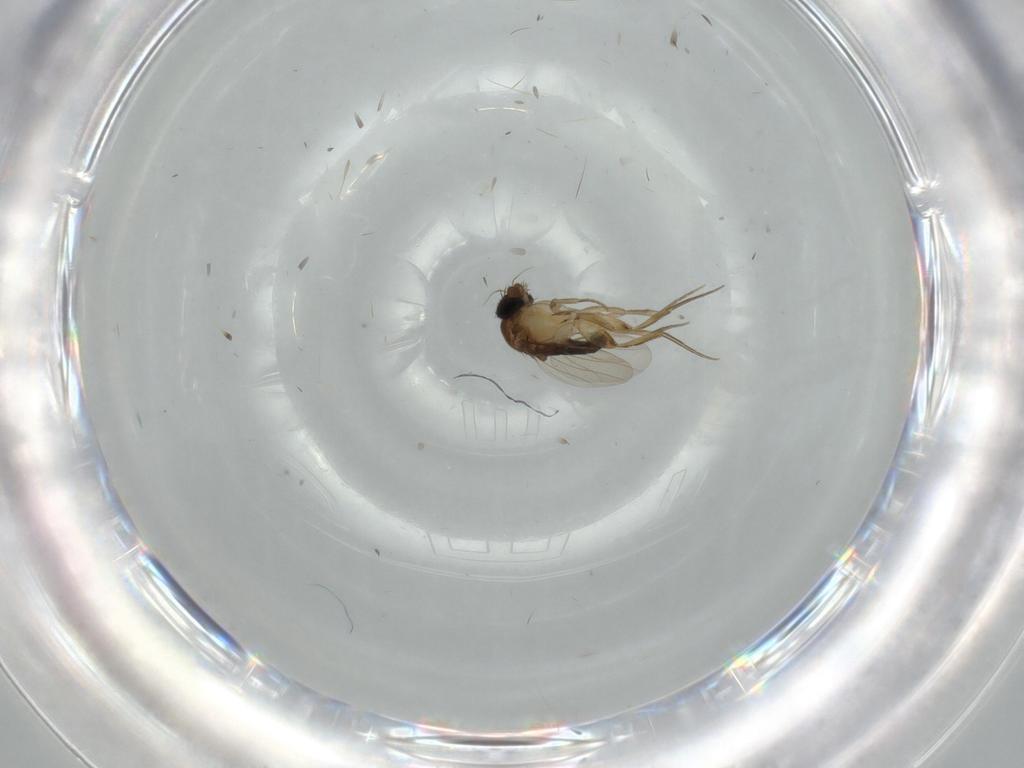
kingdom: Animalia
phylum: Arthropoda
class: Insecta
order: Diptera
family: Phoridae
